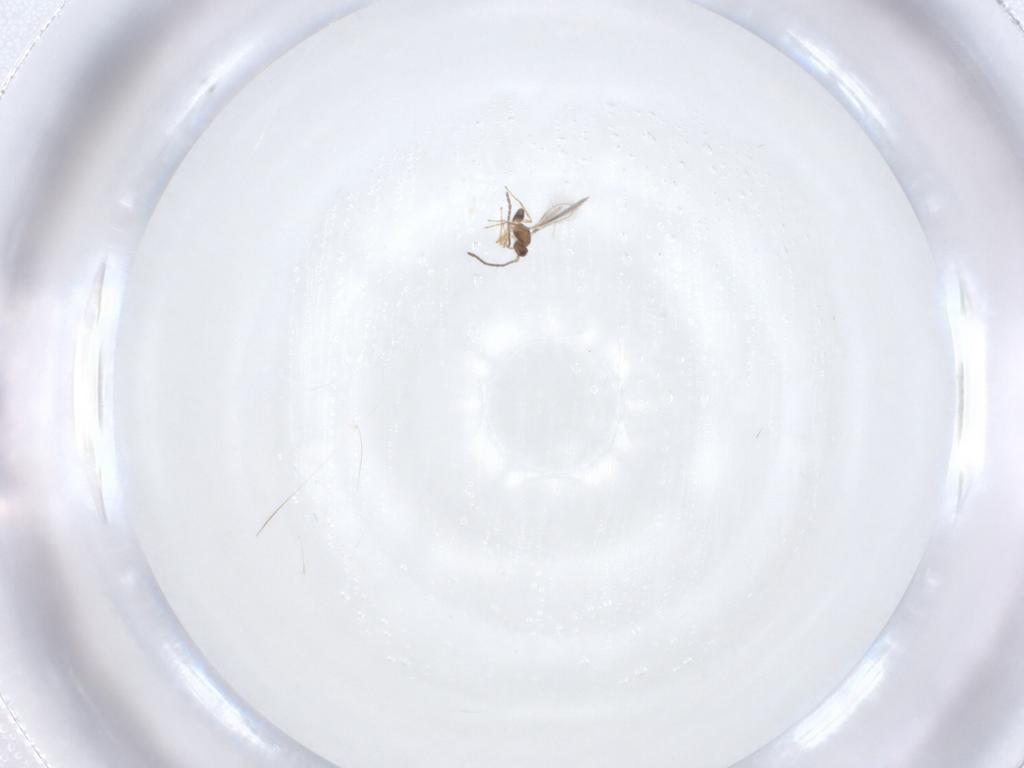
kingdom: Animalia
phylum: Arthropoda
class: Insecta
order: Hymenoptera
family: Mymaridae
